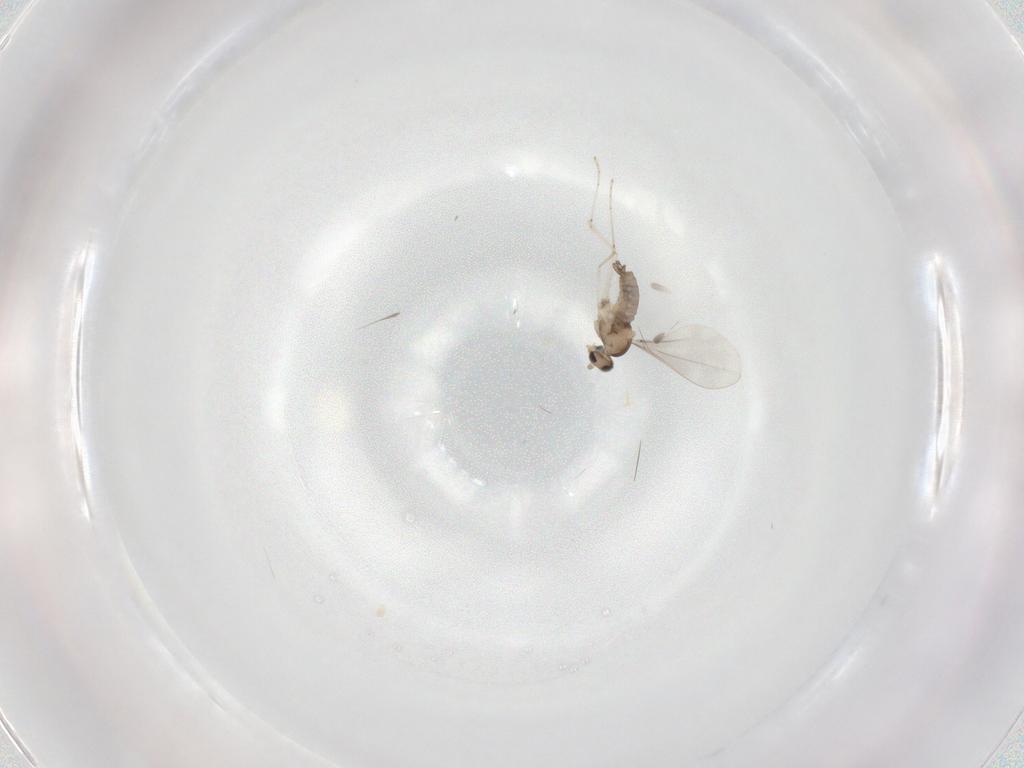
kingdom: Animalia
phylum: Arthropoda
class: Insecta
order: Diptera
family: Cecidomyiidae
